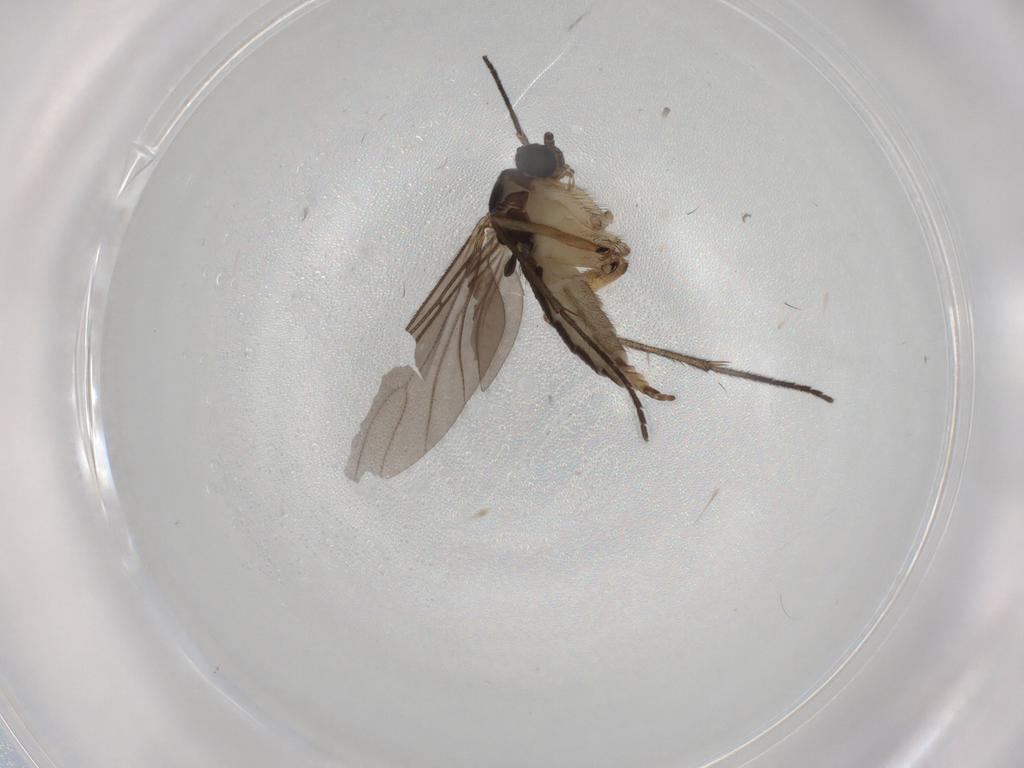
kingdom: Animalia
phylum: Arthropoda
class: Insecta
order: Diptera
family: Sciaridae
